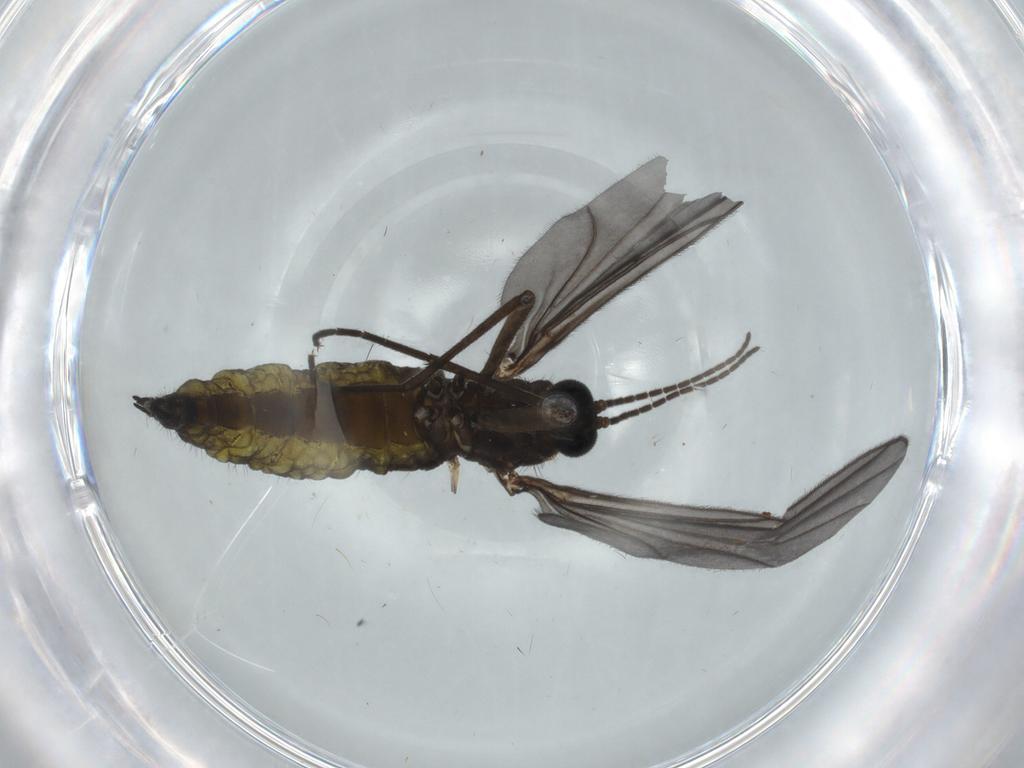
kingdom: Animalia
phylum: Arthropoda
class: Insecta
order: Diptera
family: Sciaridae
